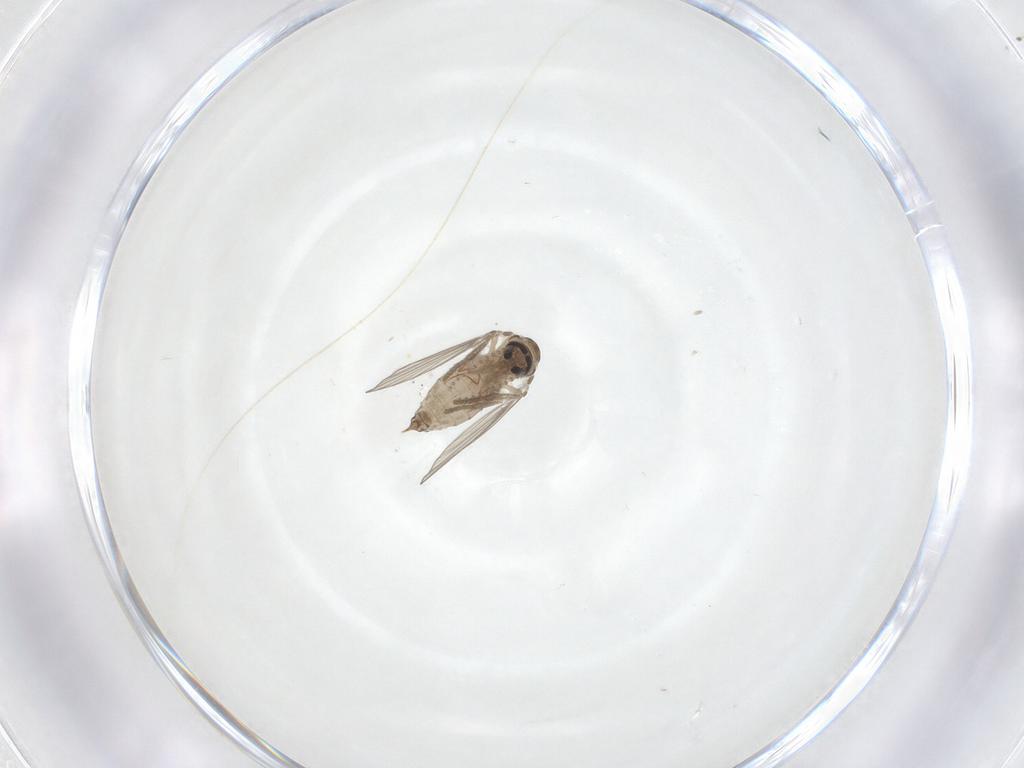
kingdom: Animalia
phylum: Arthropoda
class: Insecta
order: Diptera
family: Psychodidae
